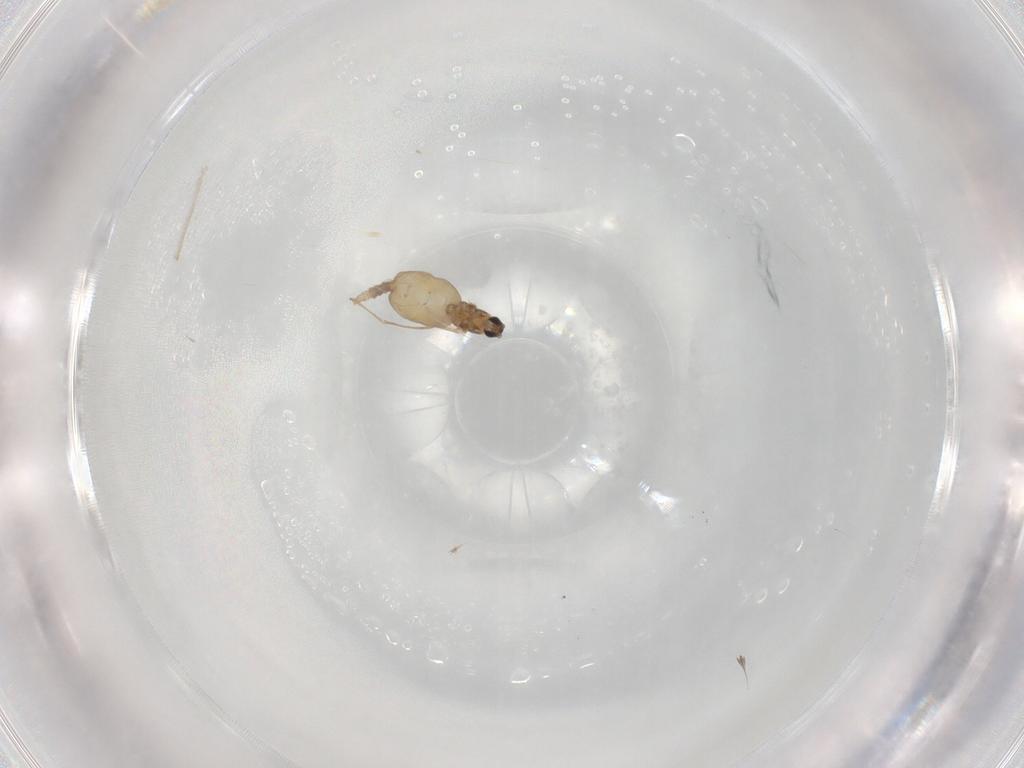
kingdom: Animalia
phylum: Arthropoda
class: Insecta
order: Diptera
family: Cecidomyiidae
